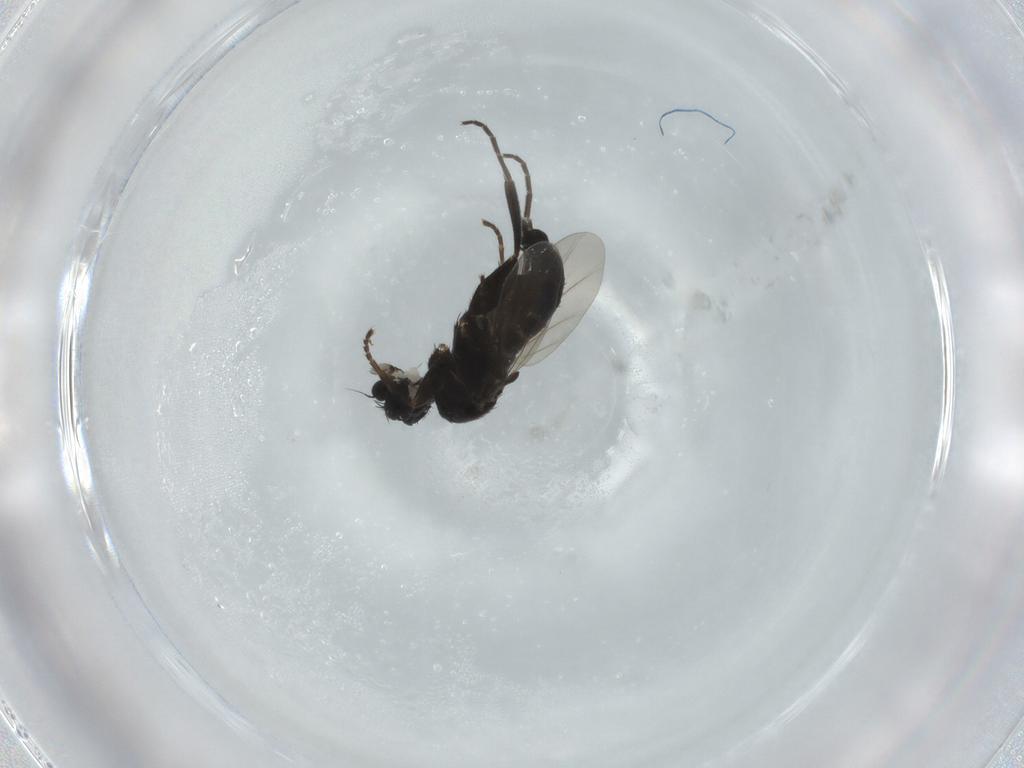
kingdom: Animalia
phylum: Arthropoda
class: Insecta
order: Diptera
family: Phoridae
